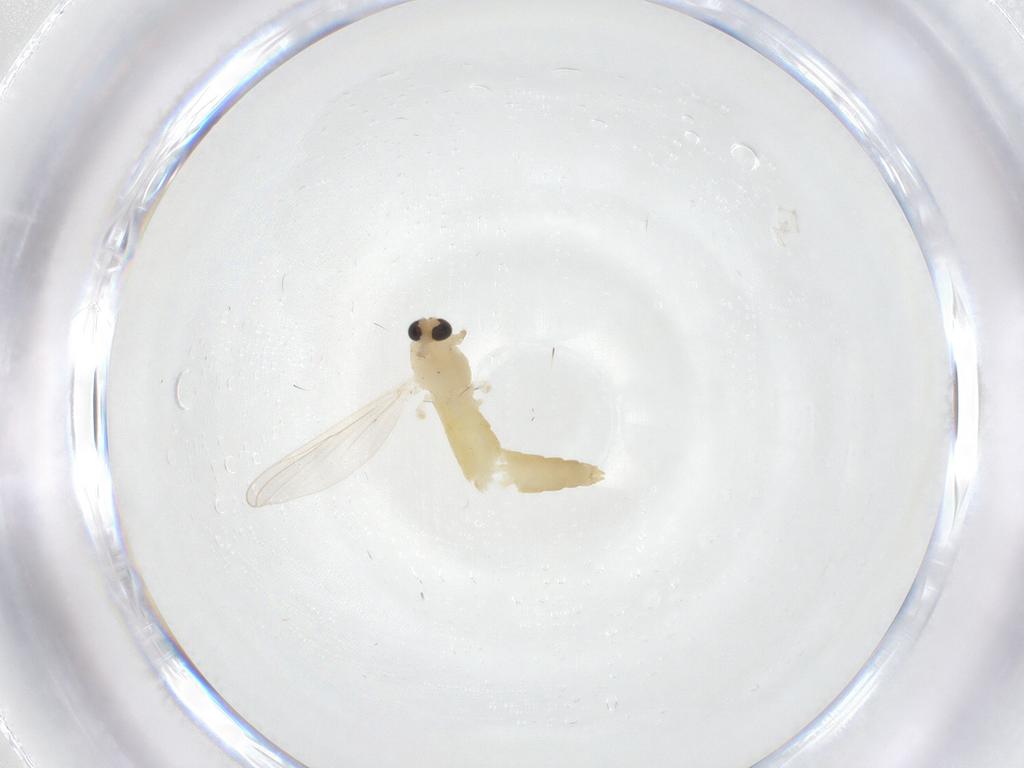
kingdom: Animalia
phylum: Arthropoda
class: Insecta
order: Diptera
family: Chironomidae
